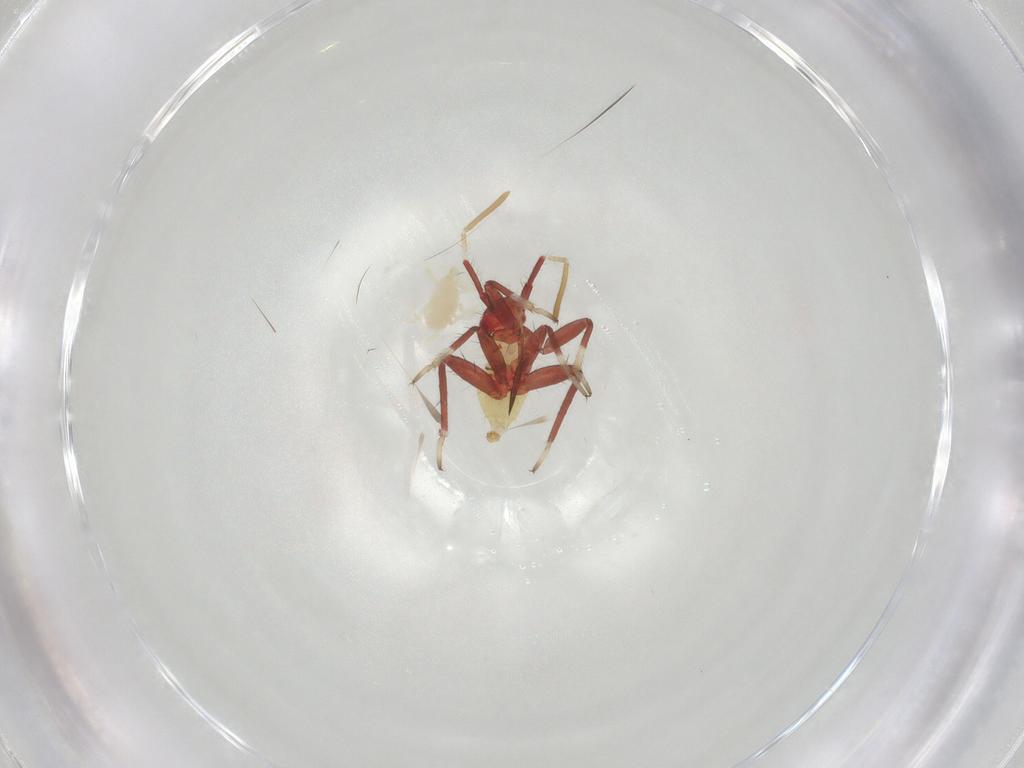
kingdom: Animalia
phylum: Arthropoda
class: Insecta
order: Hemiptera
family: Miridae
